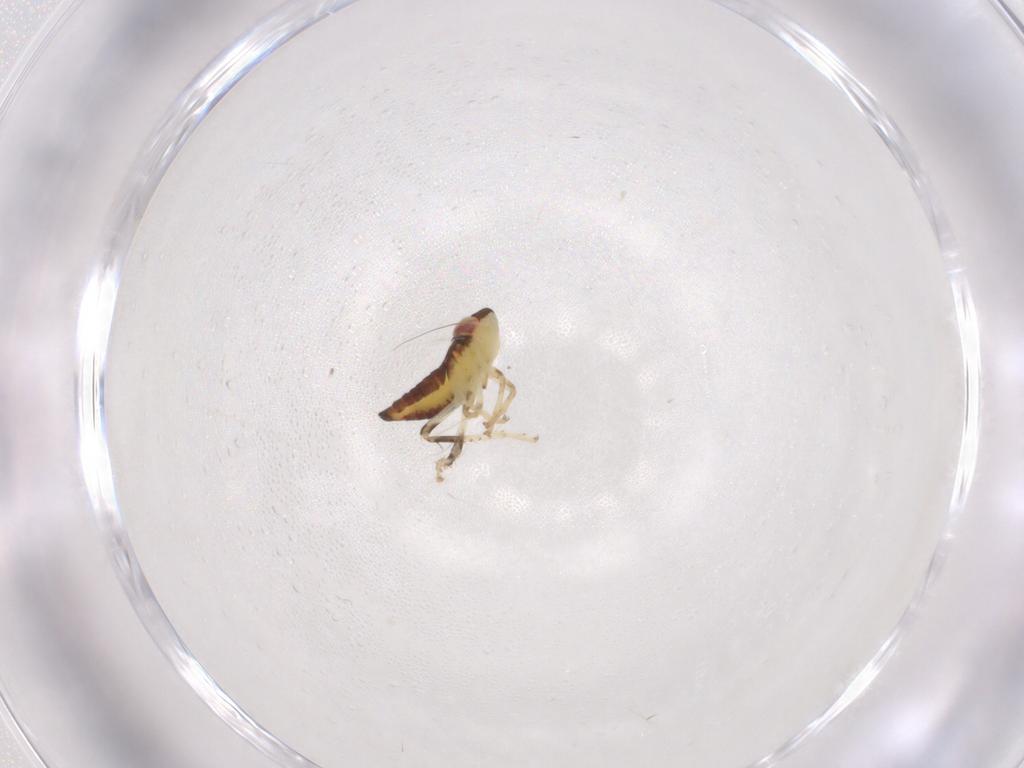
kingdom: Animalia
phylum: Arthropoda
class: Insecta
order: Hemiptera
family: Cicadellidae
